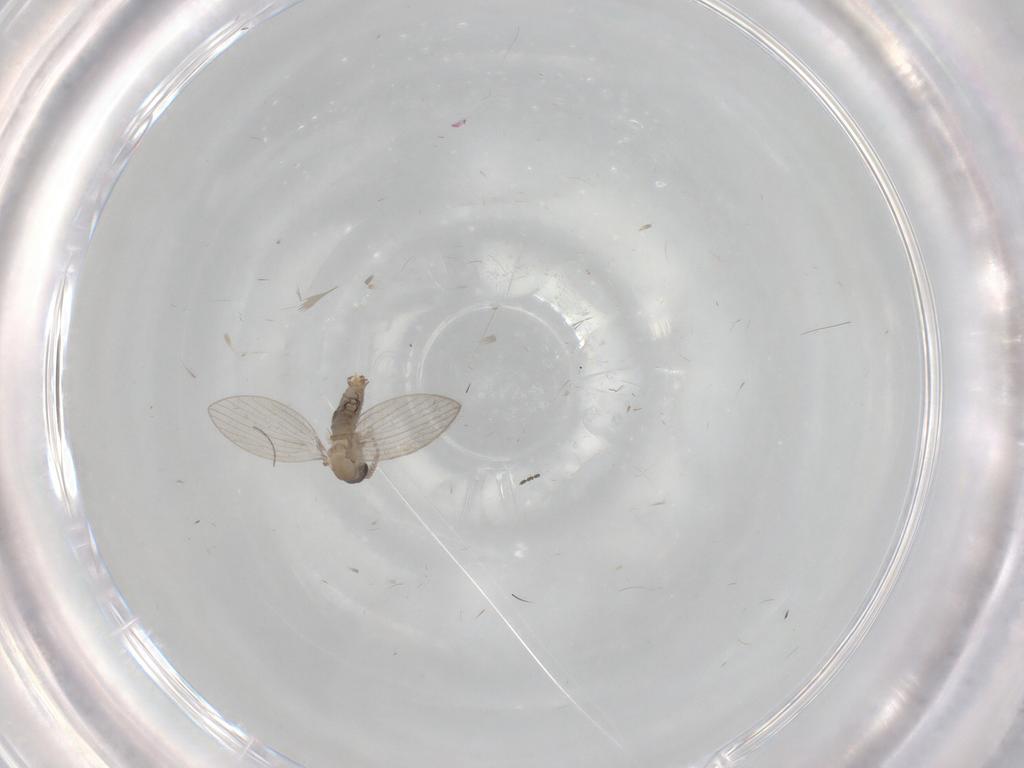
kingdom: Animalia
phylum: Arthropoda
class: Insecta
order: Diptera
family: Psychodidae
